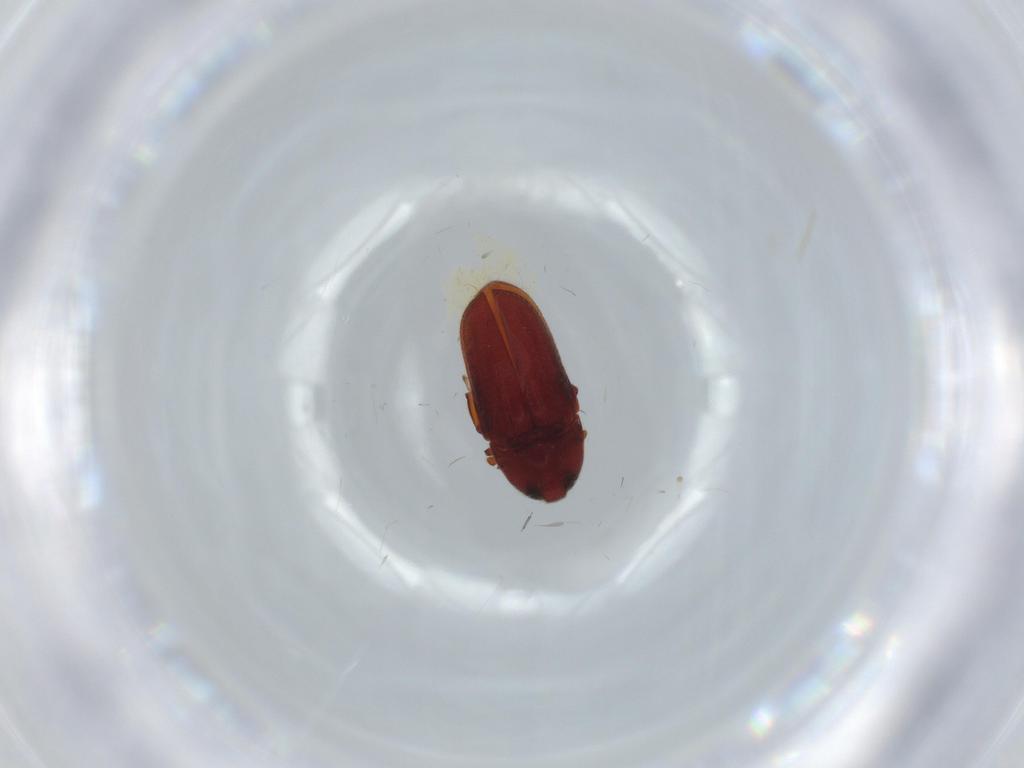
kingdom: Animalia
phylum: Arthropoda
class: Insecta
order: Coleoptera
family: Throscidae
